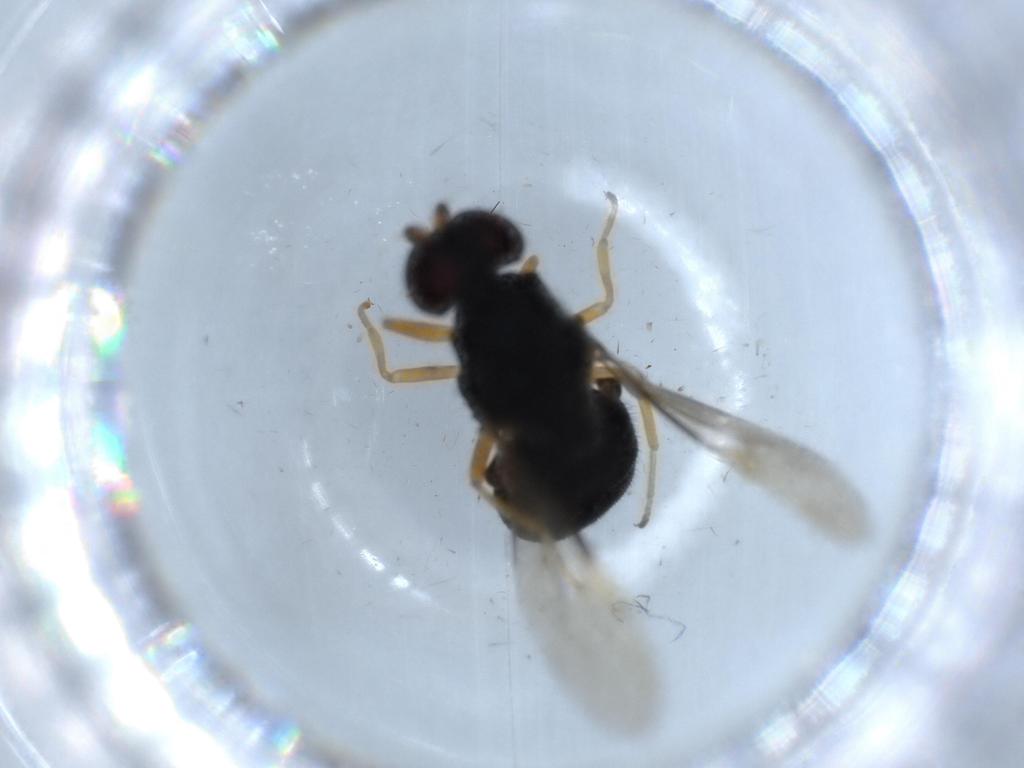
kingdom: Animalia
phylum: Arthropoda
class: Insecta
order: Diptera
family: Stratiomyidae
